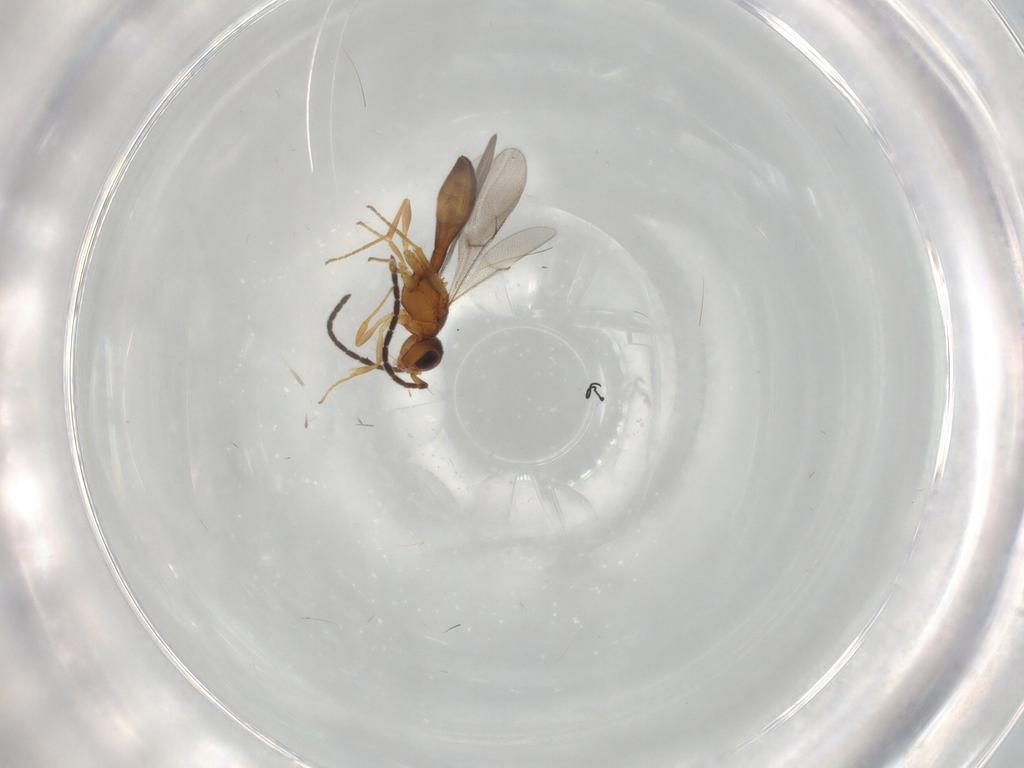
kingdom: Animalia
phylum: Arthropoda
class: Insecta
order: Hymenoptera
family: Scelionidae
